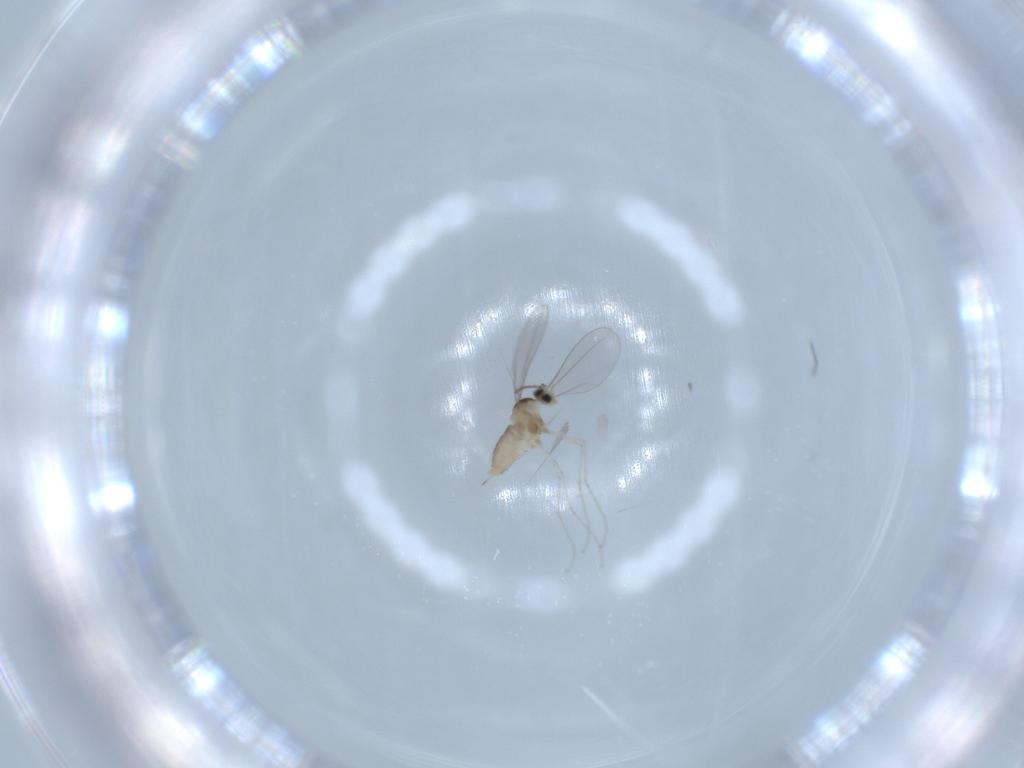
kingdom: Animalia
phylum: Arthropoda
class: Insecta
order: Diptera
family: Cecidomyiidae
